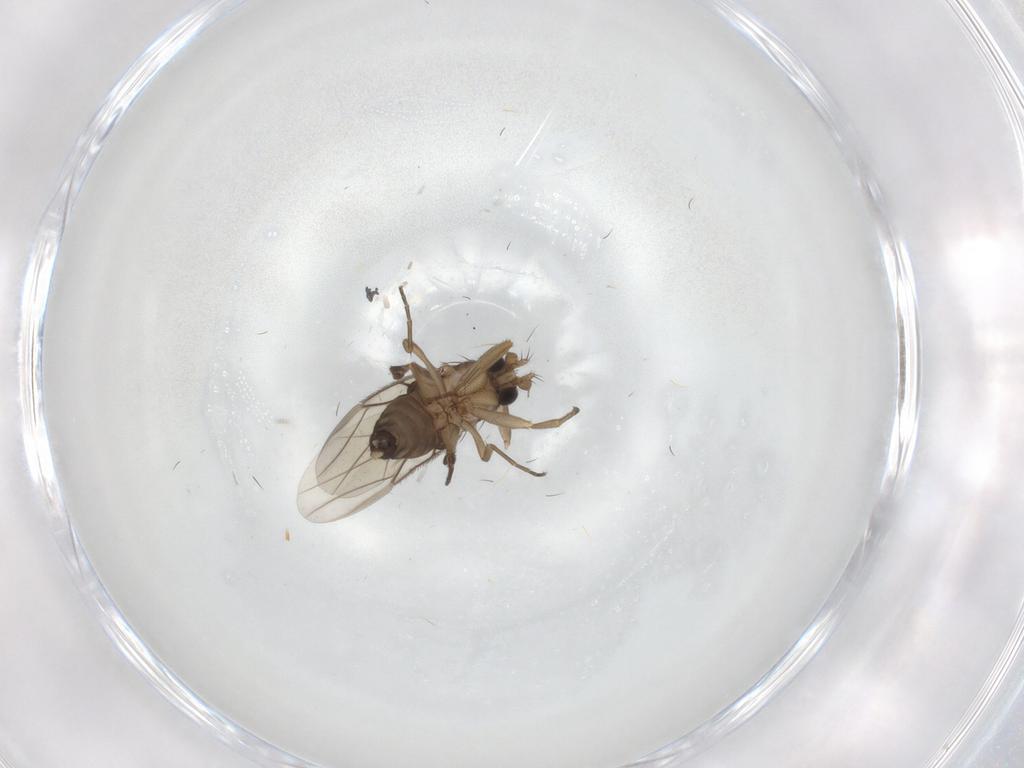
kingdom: Animalia
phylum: Arthropoda
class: Insecta
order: Diptera
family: Phoridae
